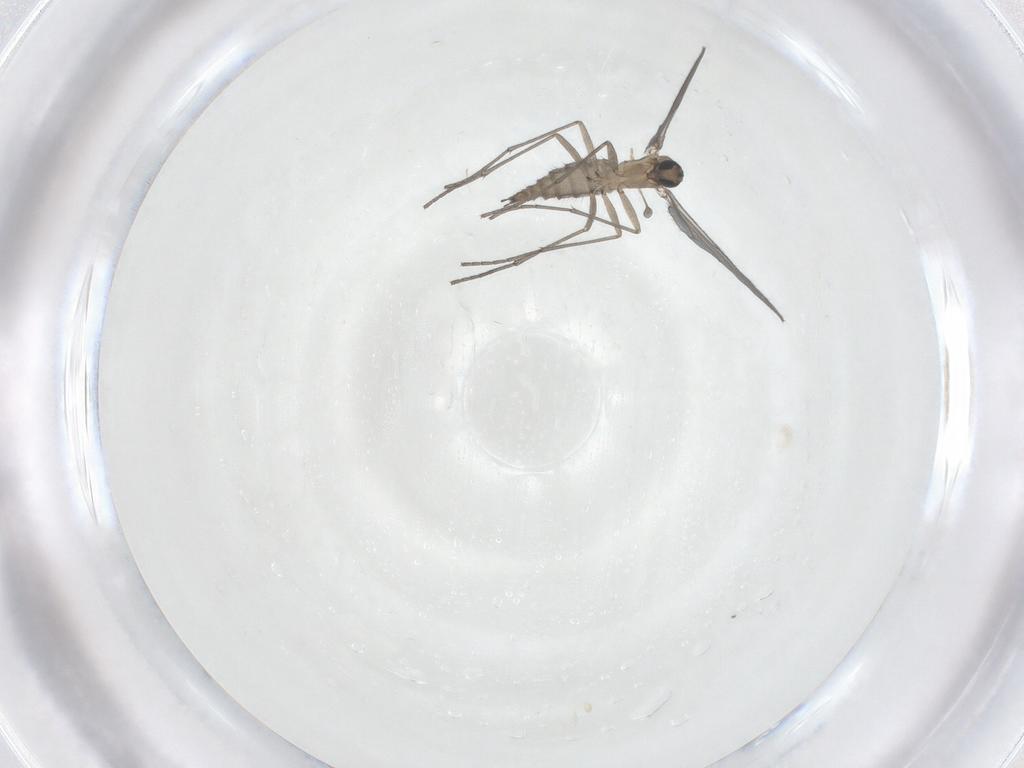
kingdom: Animalia
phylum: Arthropoda
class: Insecta
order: Diptera
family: Sciaridae
